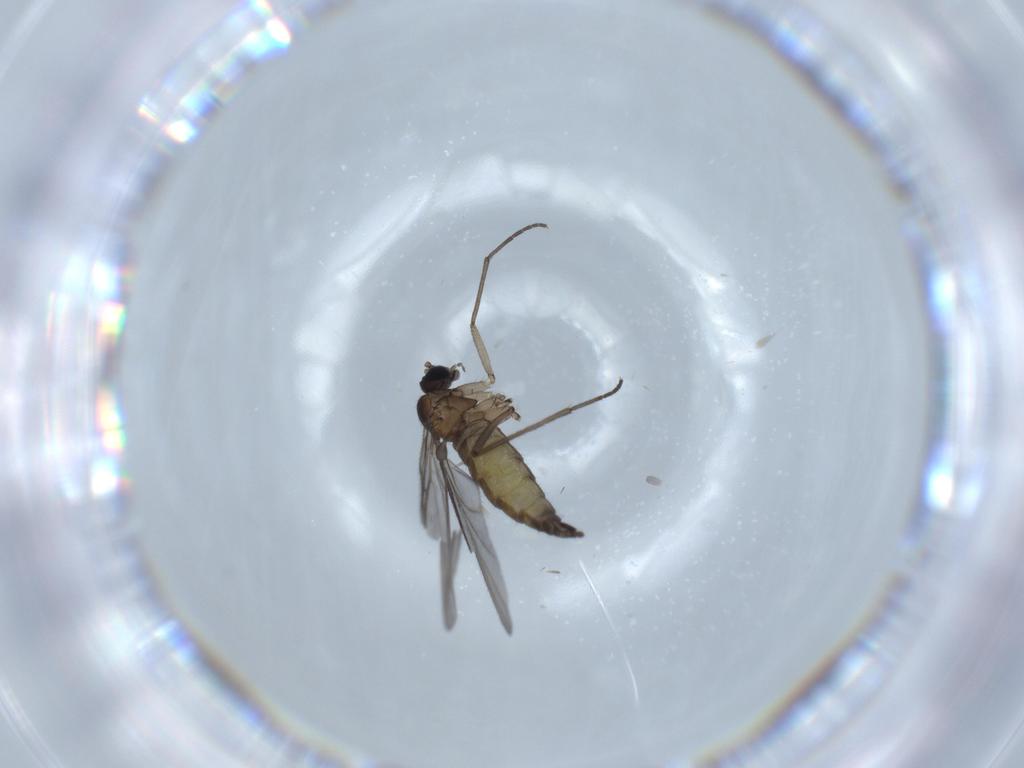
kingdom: Animalia
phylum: Arthropoda
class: Insecta
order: Diptera
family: Sciaridae
